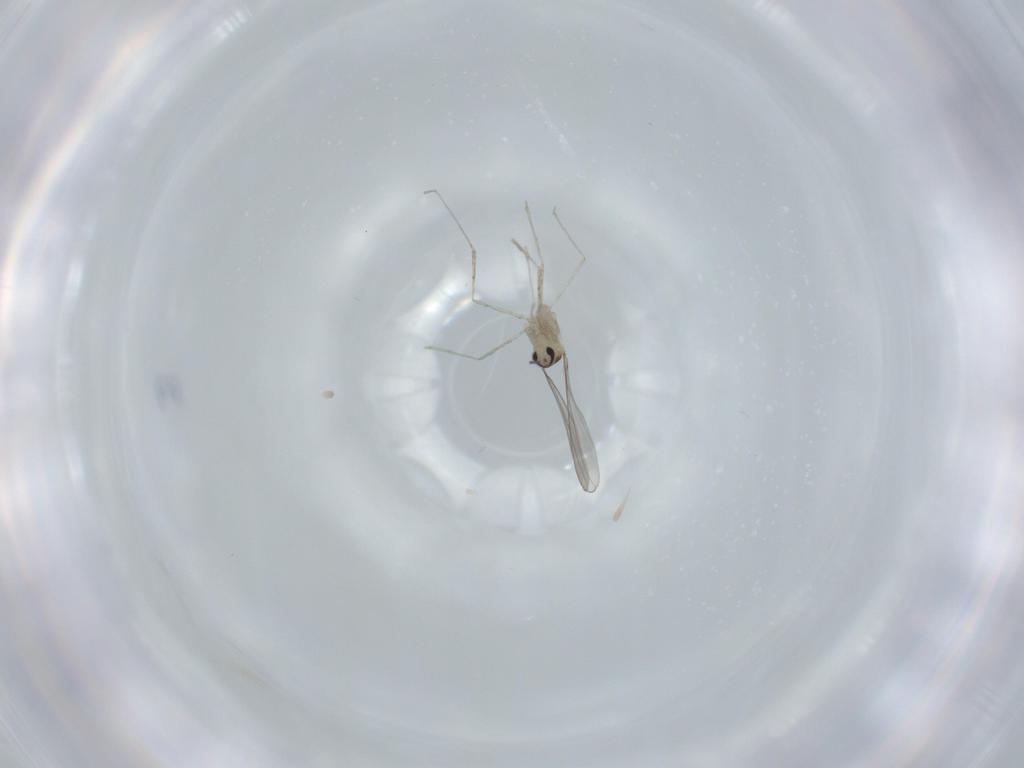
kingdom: Animalia
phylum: Arthropoda
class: Insecta
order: Diptera
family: Cecidomyiidae
